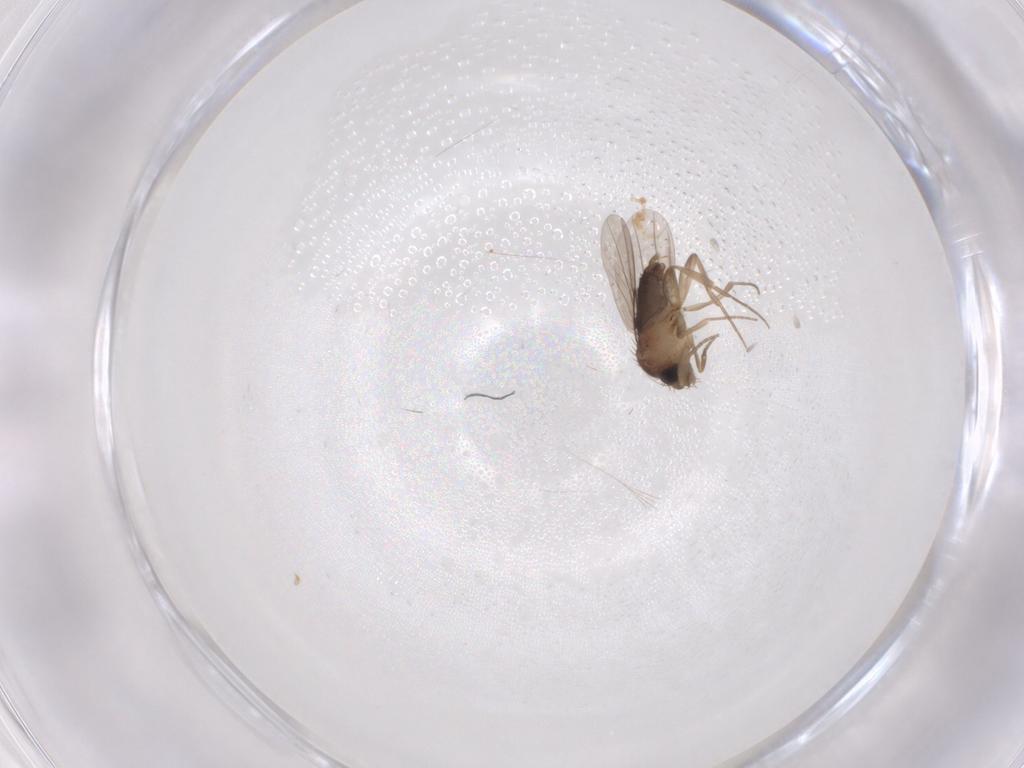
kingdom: Animalia
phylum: Arthropoda
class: Insecta
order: Diptera
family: Phoridae
